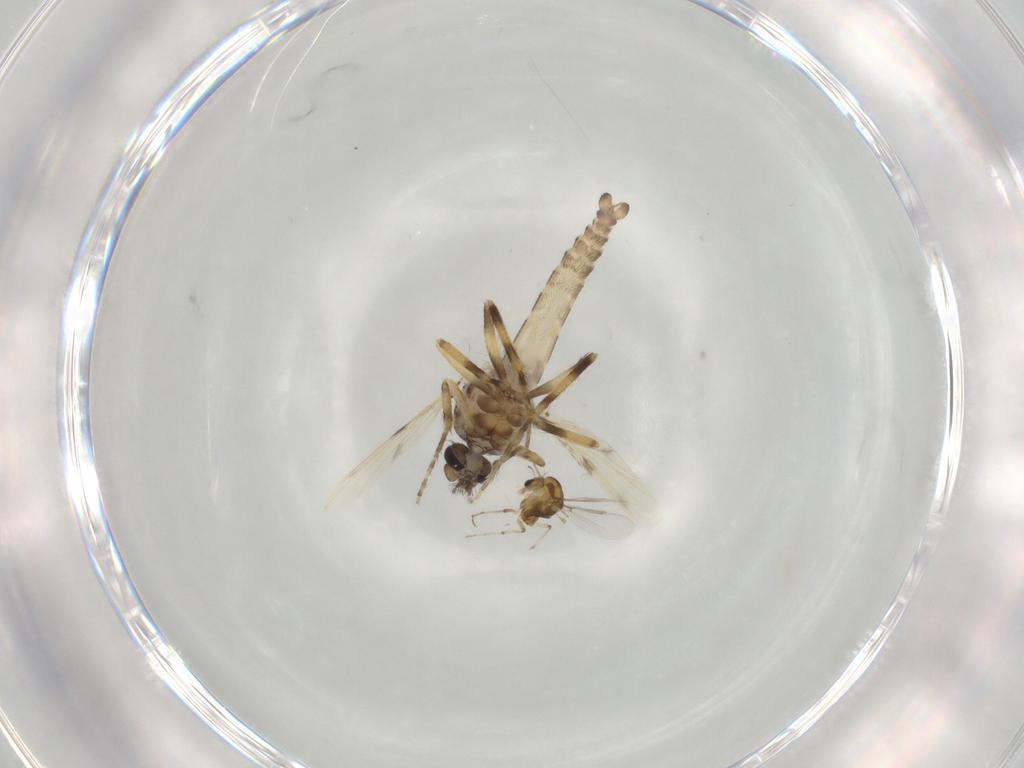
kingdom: Animalia
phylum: Arthropoda
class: Insecta
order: Diptera
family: Ceratopogonidae
